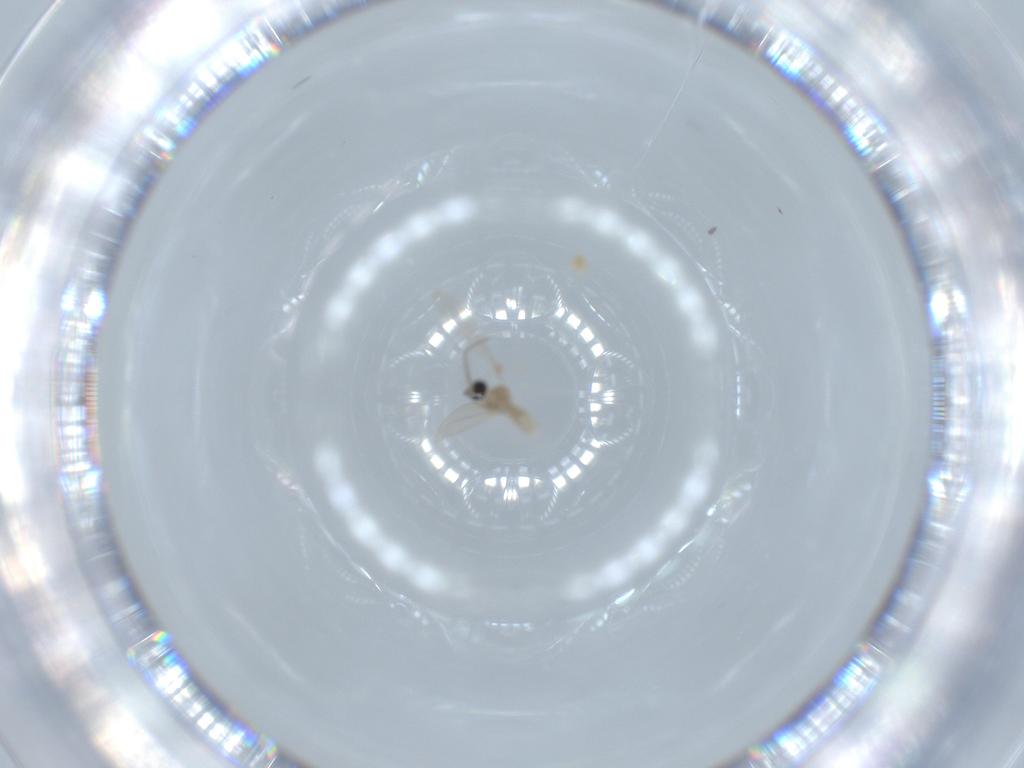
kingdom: Animalia
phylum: Arthropoda
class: Insecta
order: Diptera
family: Cecidomyiidae
